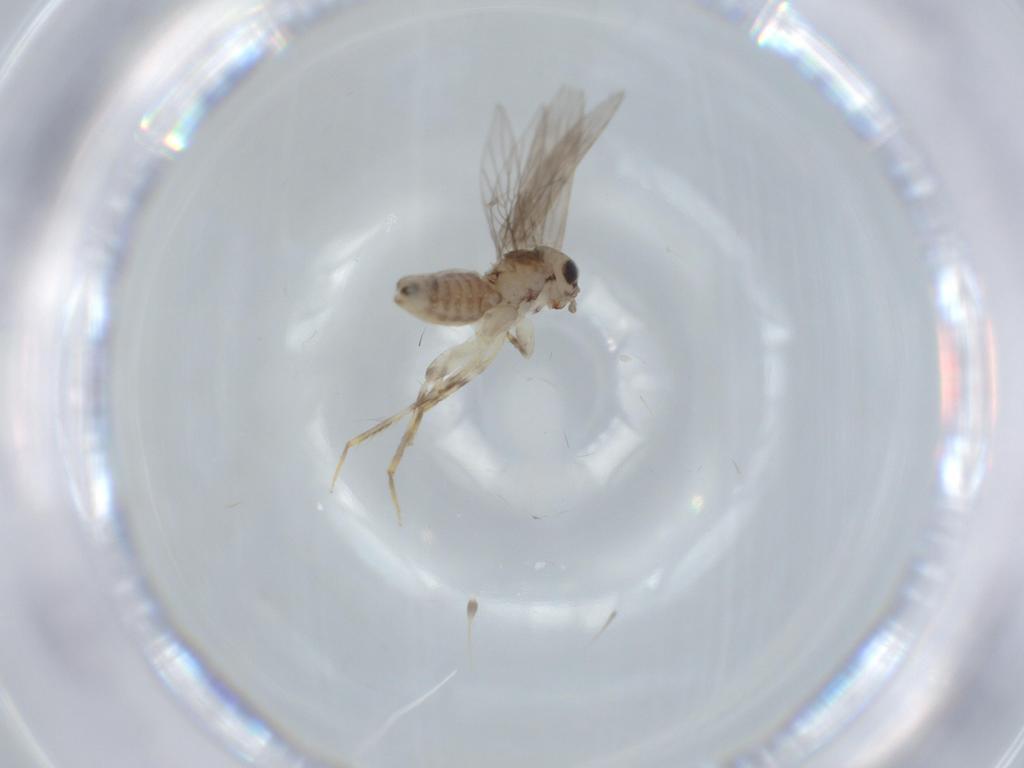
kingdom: Animalia
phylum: Arthropoda
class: Insecta
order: Psocodea
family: Lepidopsocidae
